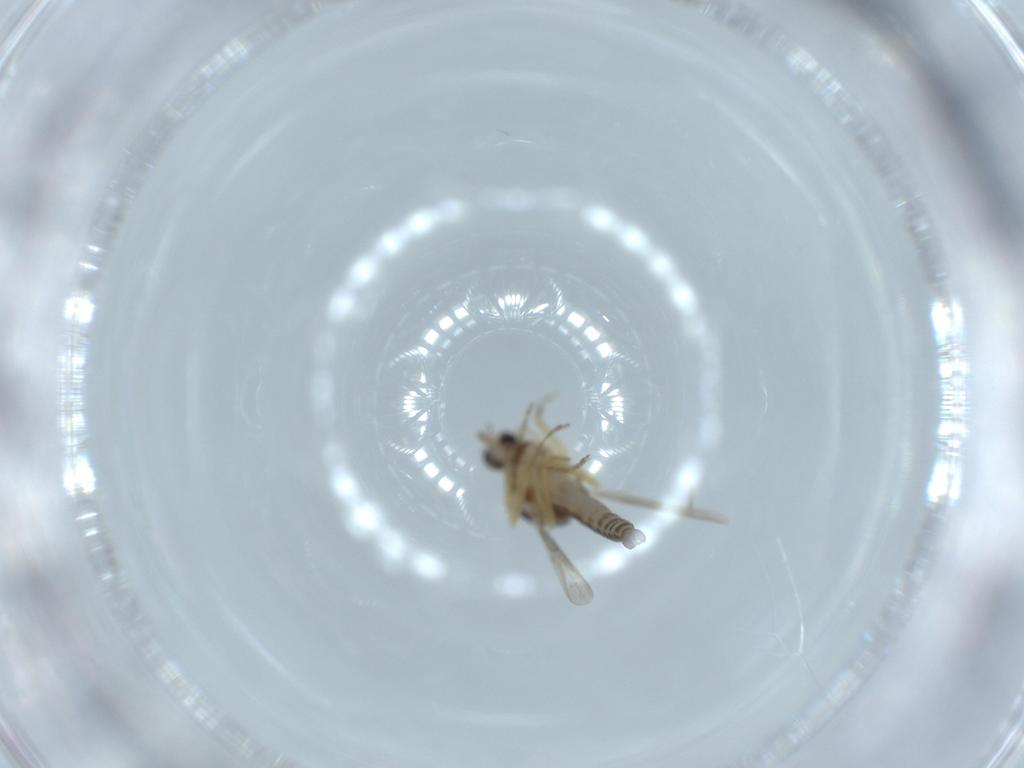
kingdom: Animalia
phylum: Arthropoda
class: Insecta
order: Diptera
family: Ceratopogonidae
